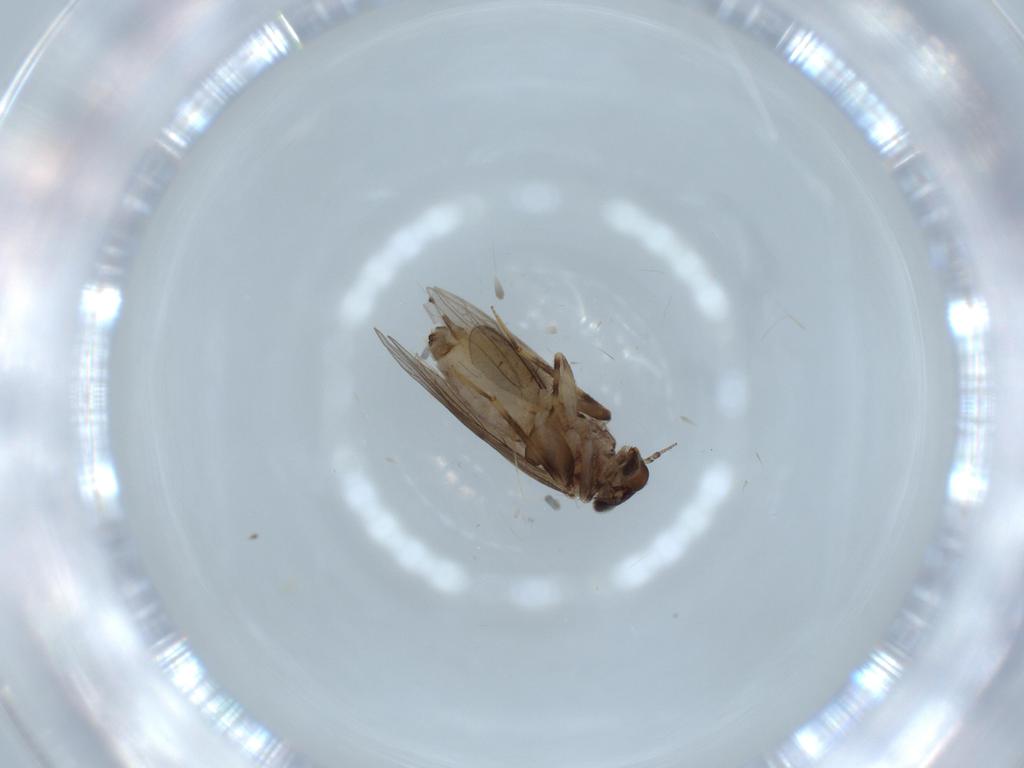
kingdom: Animalia
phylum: Arthropoda
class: Insecta
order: Psocodea
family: Lepidopsocidae
